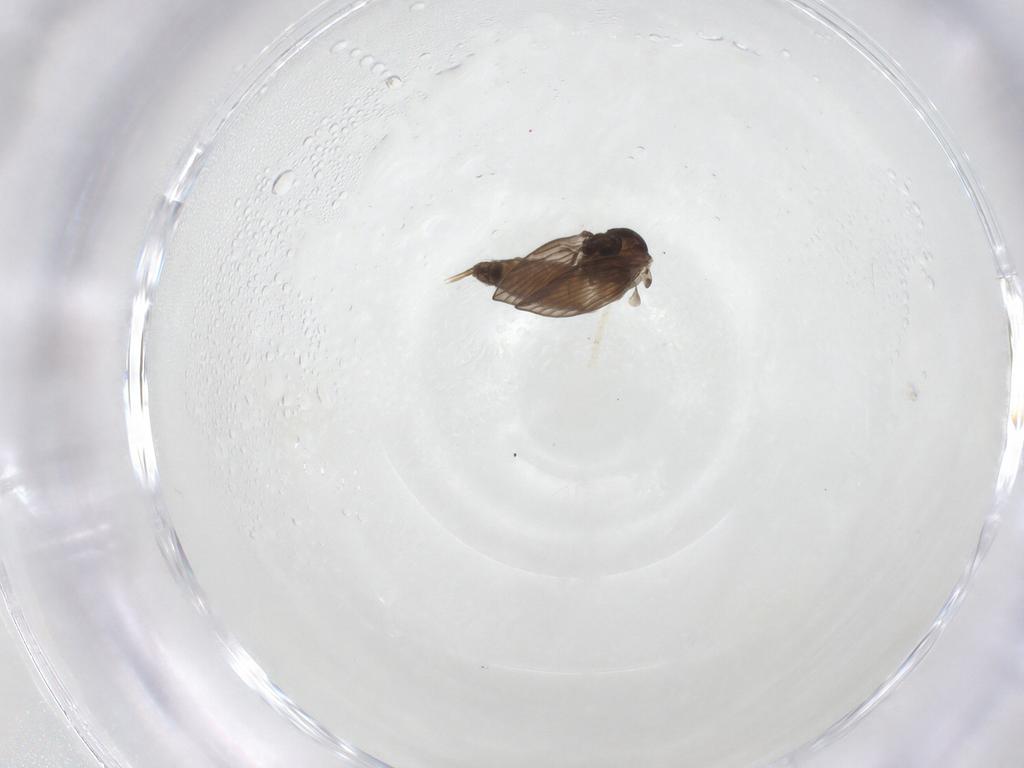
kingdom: Animalia
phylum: Arthropoda
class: Insecta
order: Diptera
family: Psychodidae
